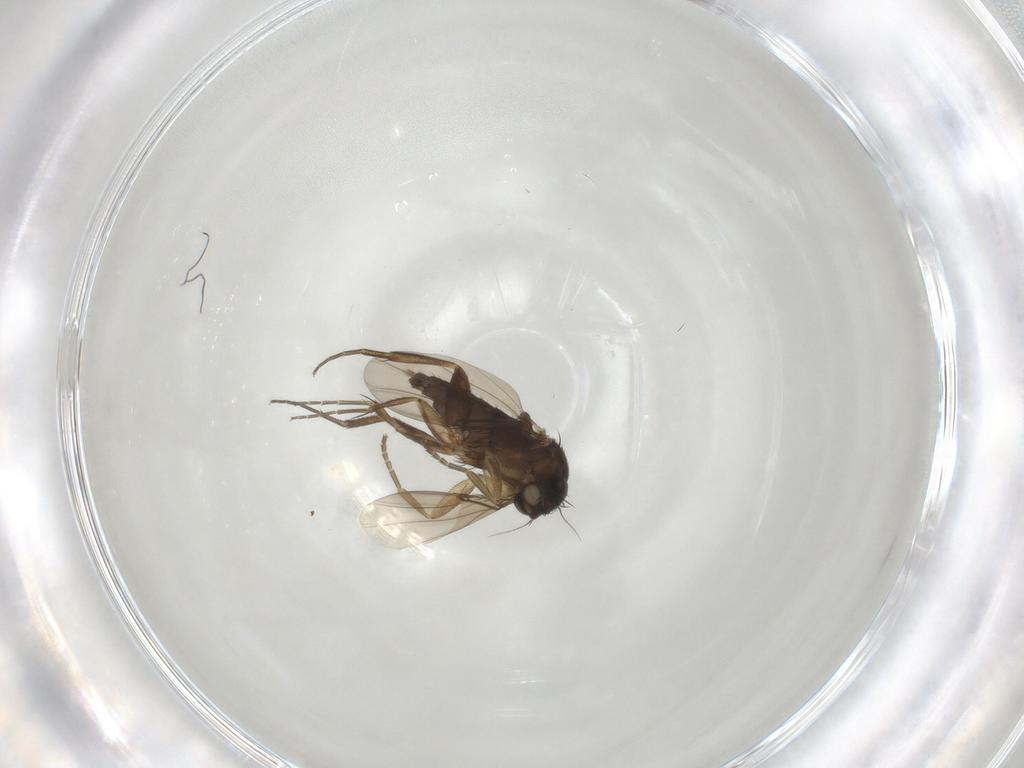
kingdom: Animalia
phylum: Arthropoda
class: Insecta
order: Diptera
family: Phoridae
